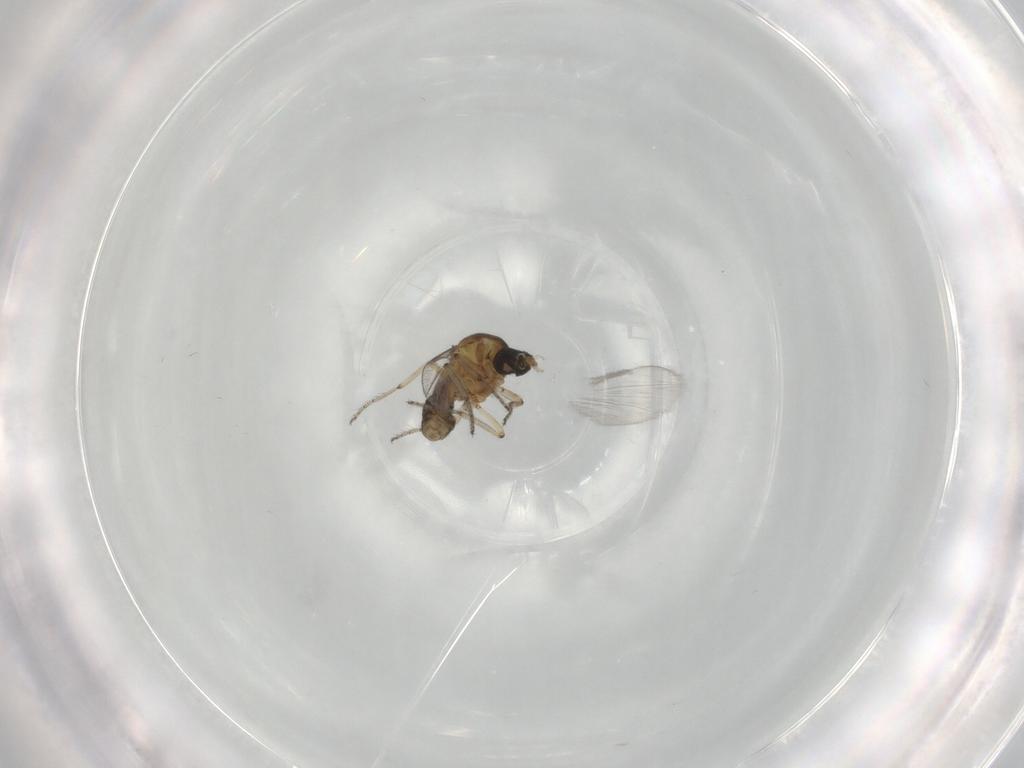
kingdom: Animalia
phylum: Arthropoda
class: Insecta
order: Diptera
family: Ceratopogonidae
